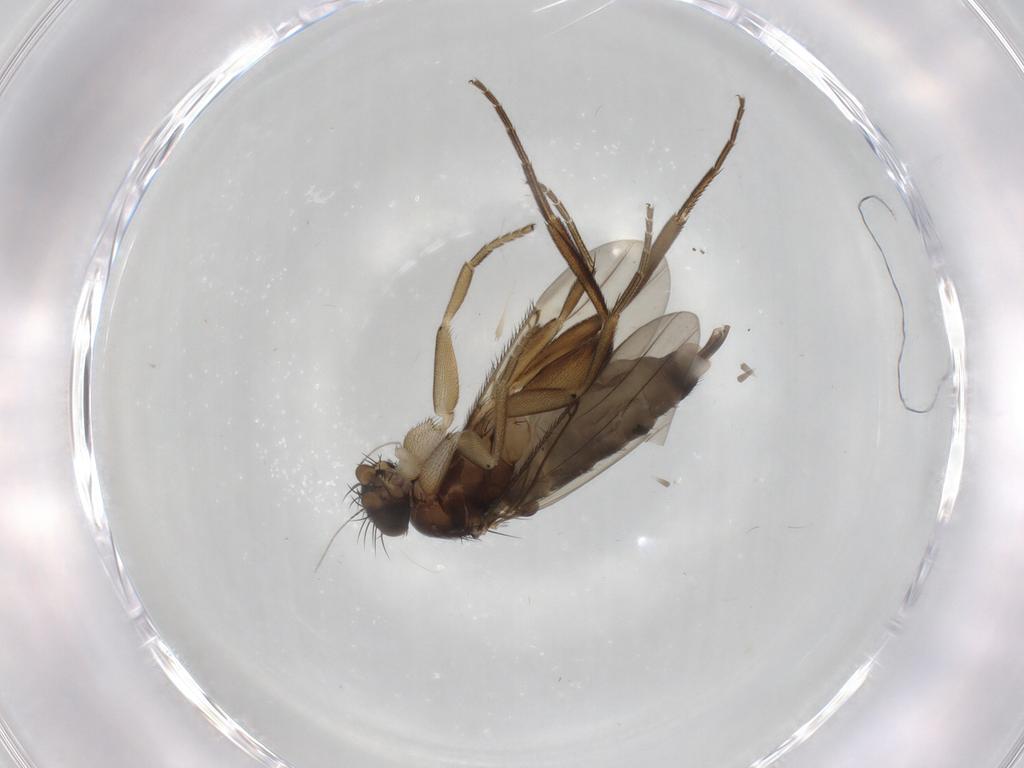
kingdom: Animalia
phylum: Arthropoda
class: Insecta
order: Diptera
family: Phoridae
